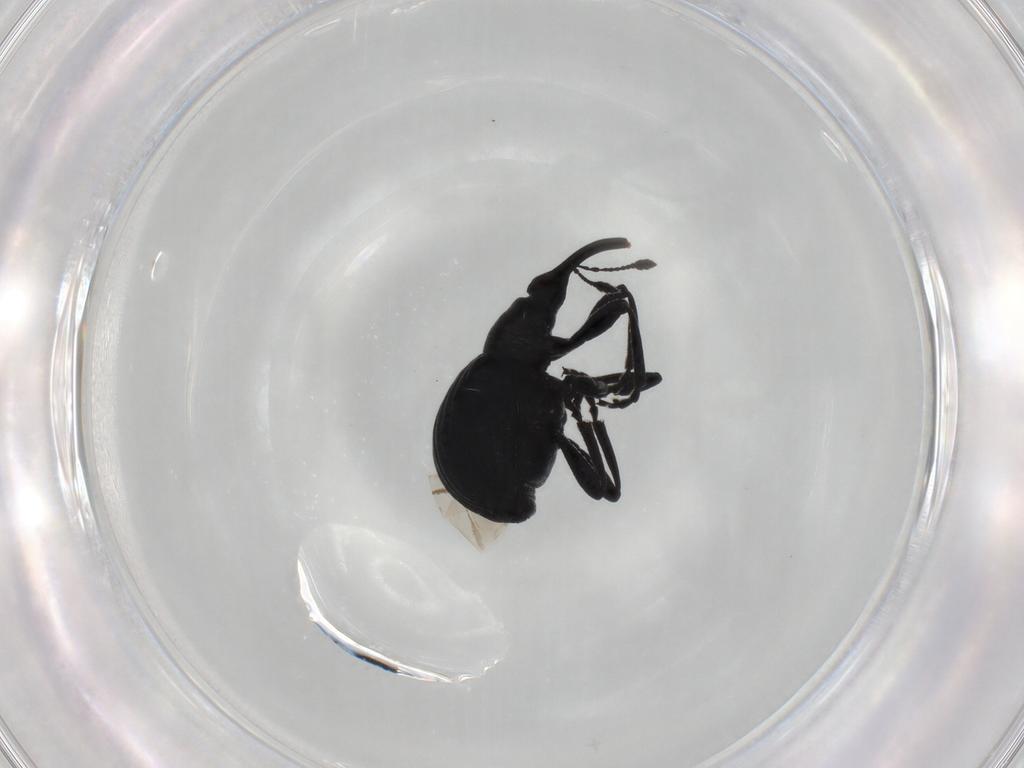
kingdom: Animalia
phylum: Arthropoda
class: Insecta
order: Coleoptera
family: Brentidae
